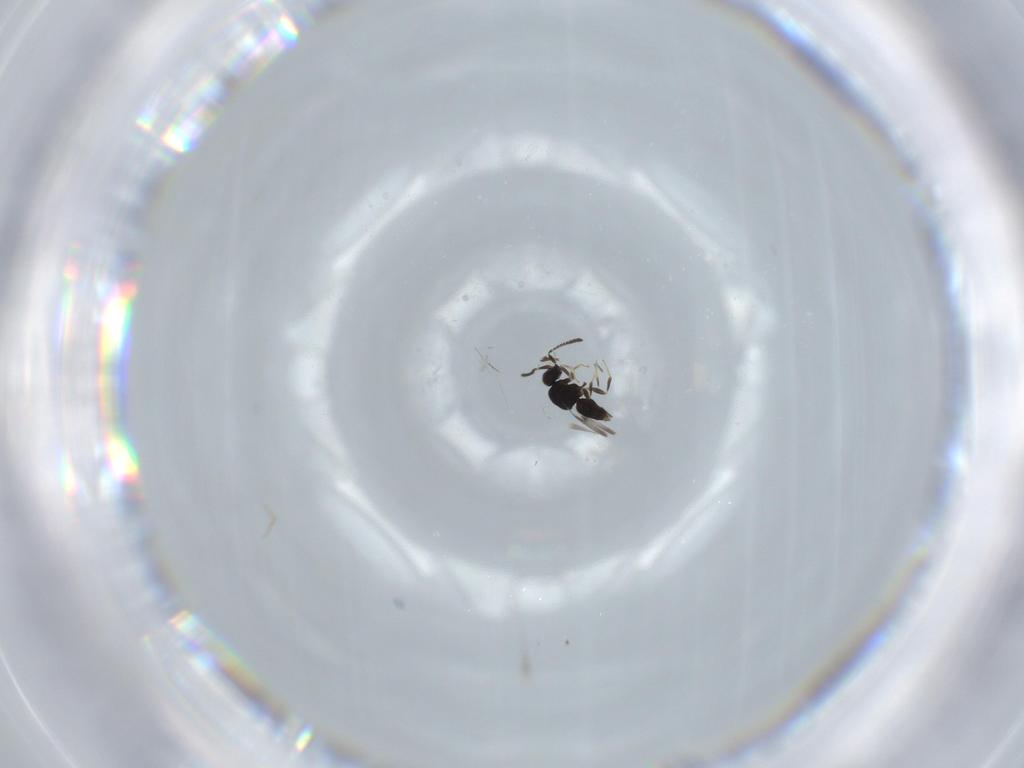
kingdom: Animalia
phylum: Arthropoda
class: Insecta
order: Hymenoptera
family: Ceraphronidae
